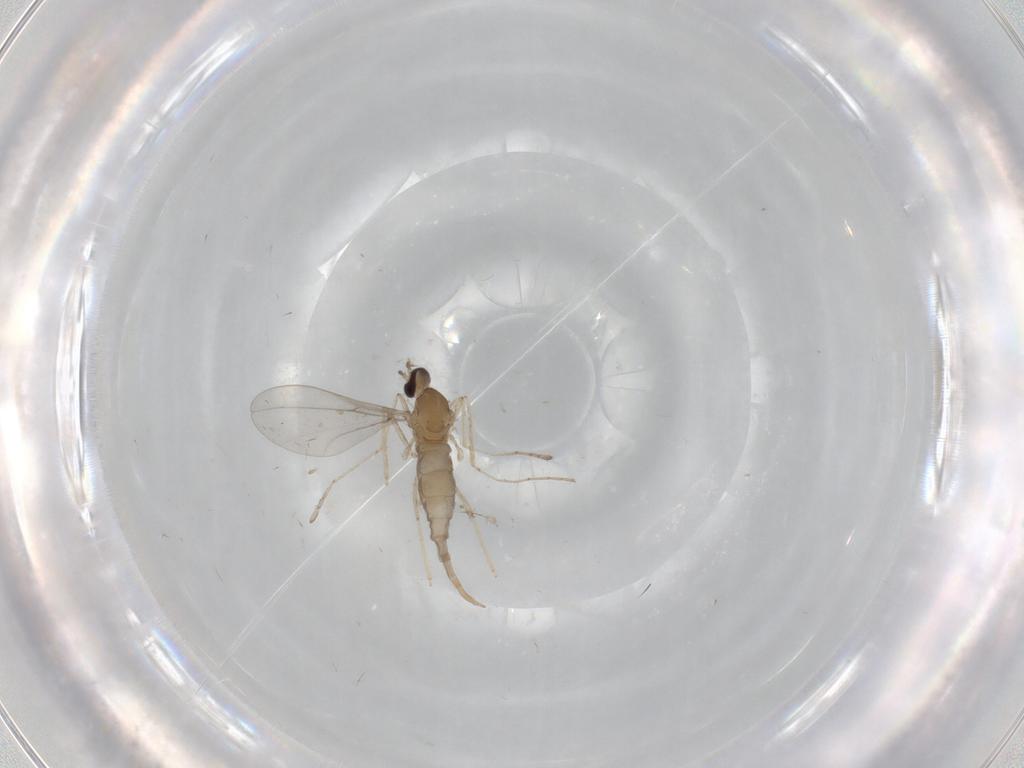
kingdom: Animalia
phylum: Arthropoda
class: Insecta
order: Diptera
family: Cecidomyiidae
